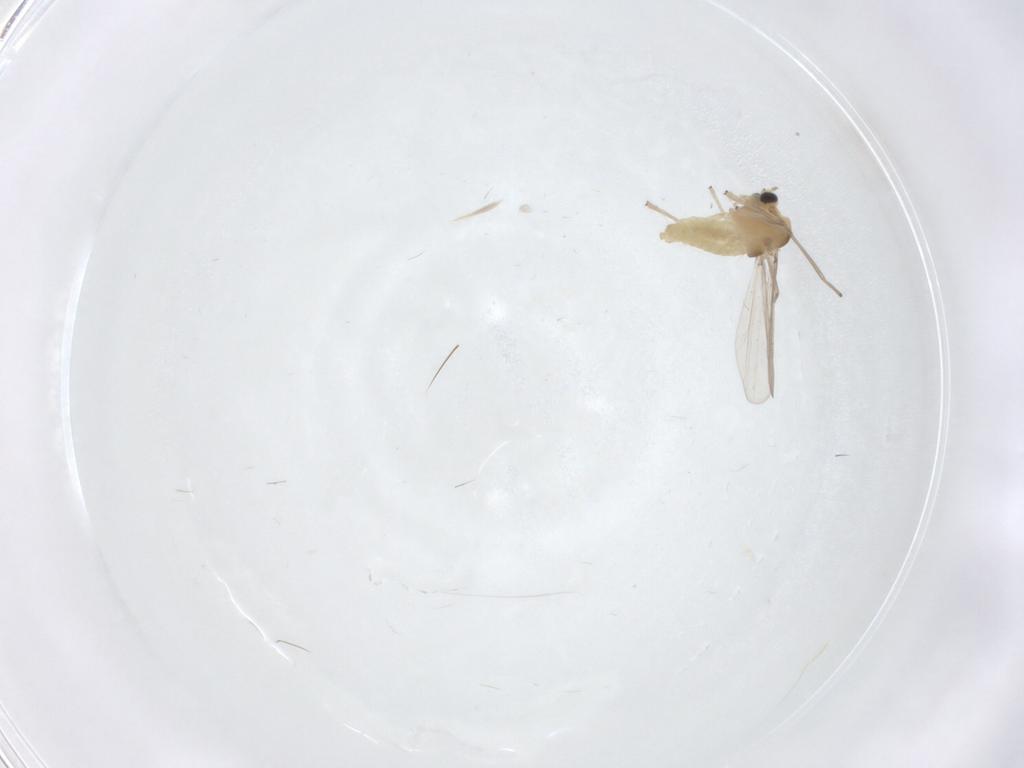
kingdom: Animalia
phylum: Arthropoda
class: Insecta
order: Diptera
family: Chironomidae
